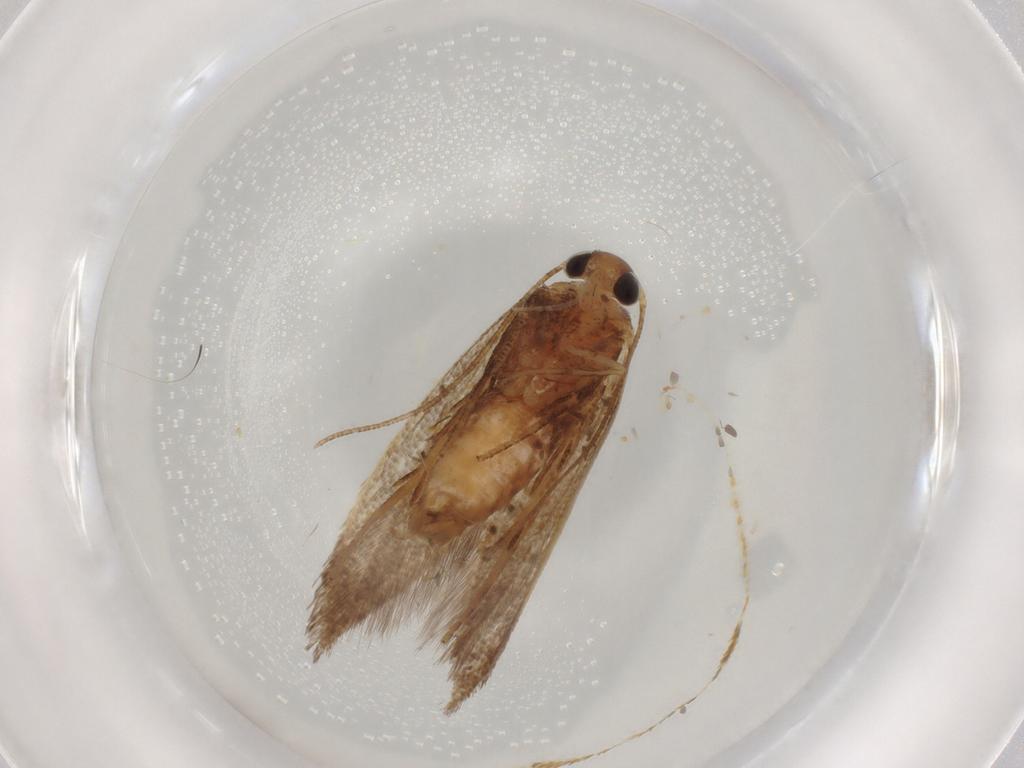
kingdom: Animalia
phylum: Arthropoda
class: Insecta
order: Lepidoptera
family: Oecophoridae
